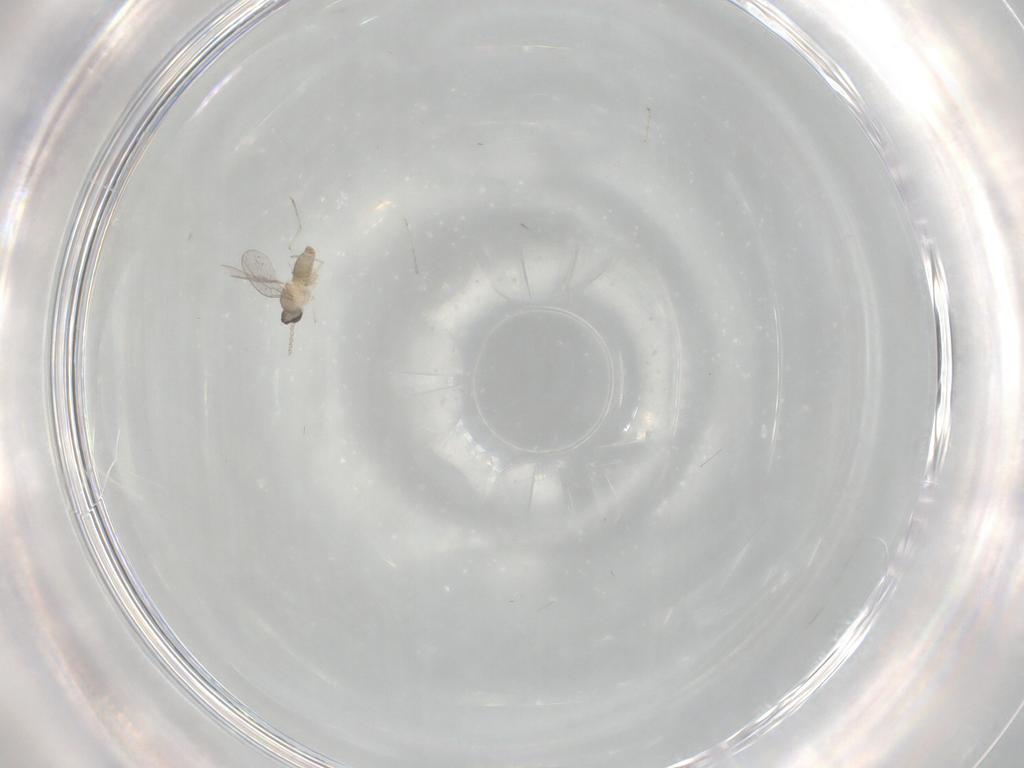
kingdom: Animalia
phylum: Arthropoda
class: Insecta
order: Diptera
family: Cecidomyiidae
